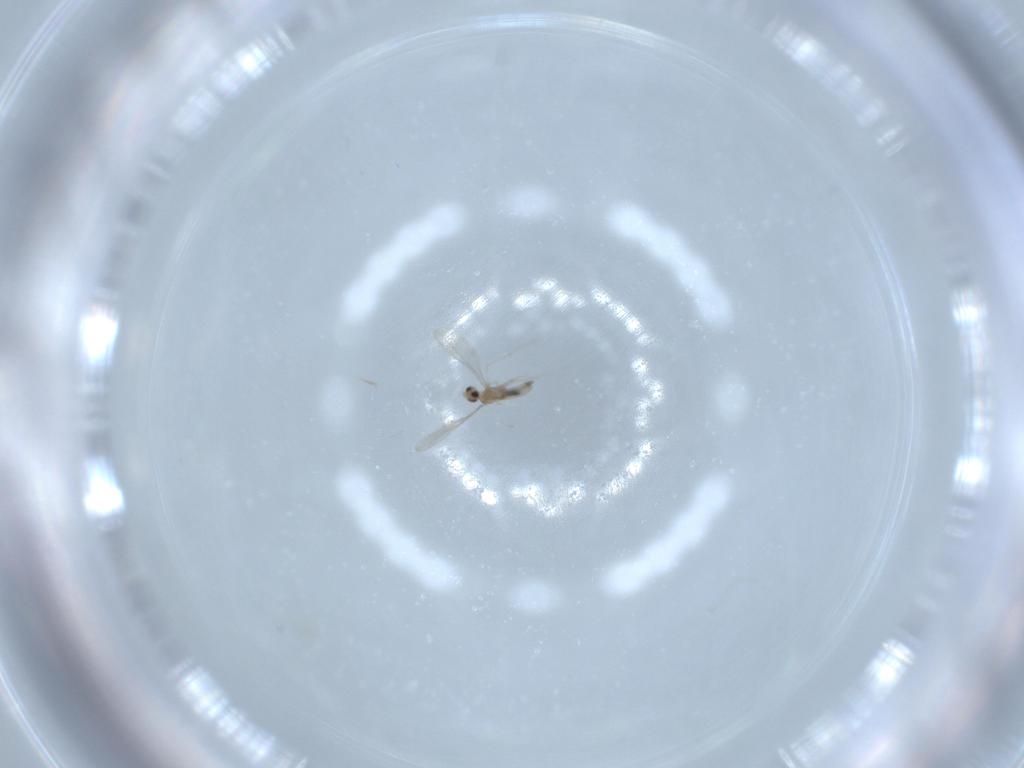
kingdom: Animalia
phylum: Arthropoda
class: Insecta
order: Diptera
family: Cecidomyiidae
